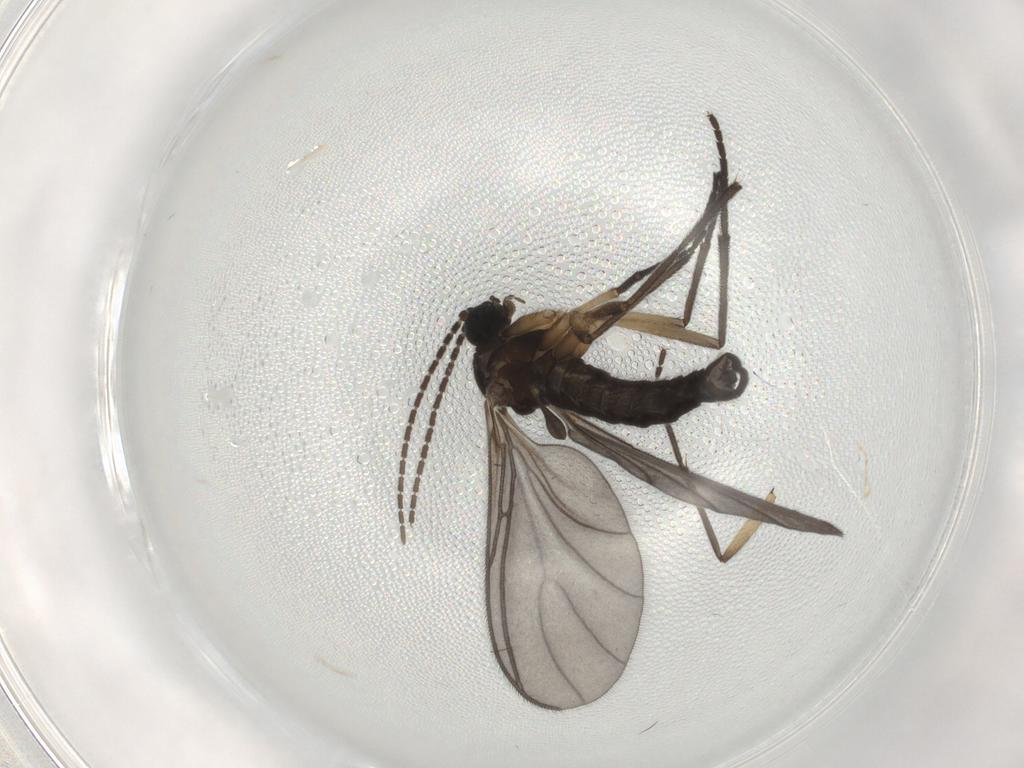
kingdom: Animalia
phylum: Arthropoda
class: Insecta
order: Diptera
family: Sciaridae
